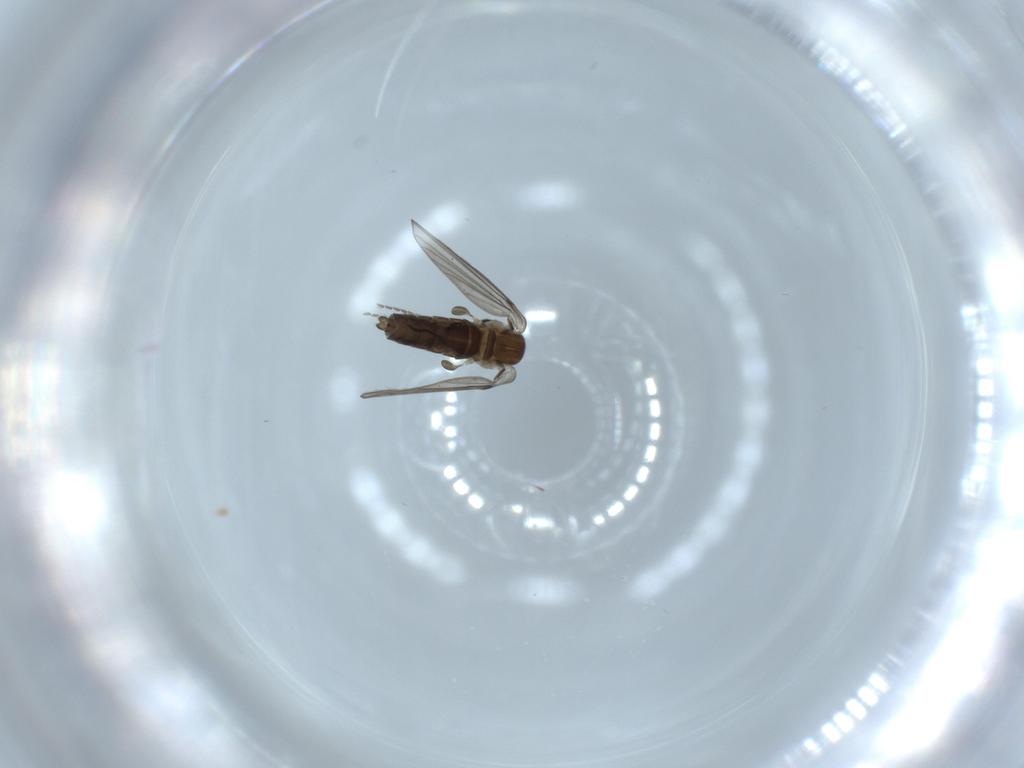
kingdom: Animalia
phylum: Arthropoda
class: Insecta
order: Diptera
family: Psychodidae
